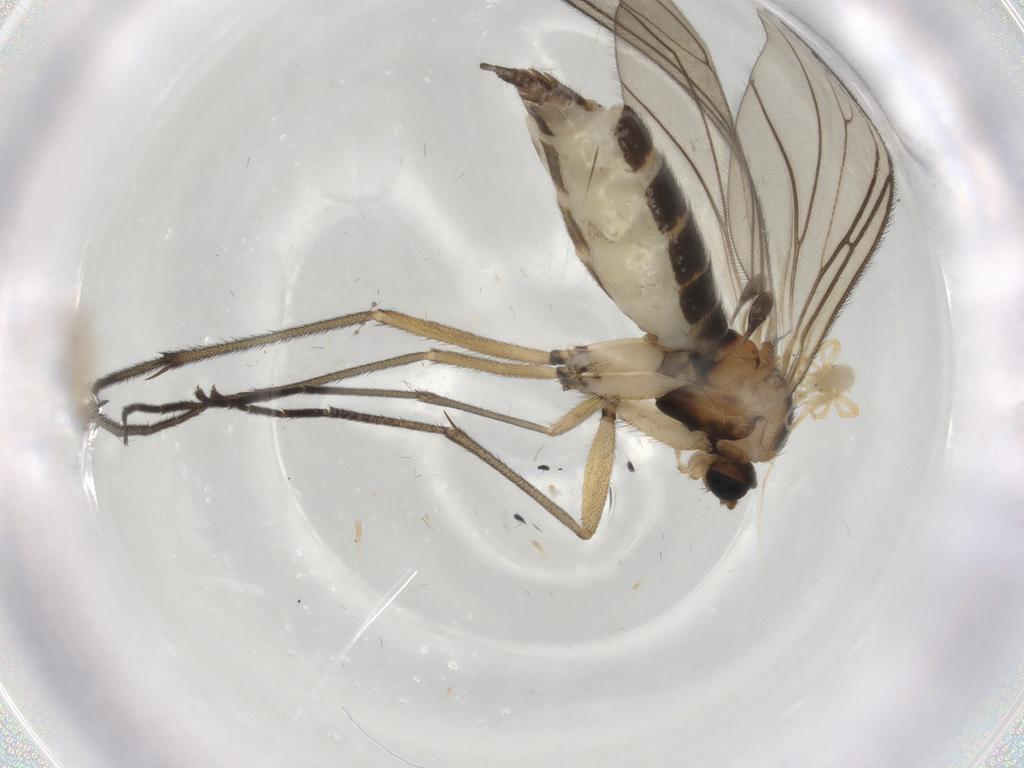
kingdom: Animalia
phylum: Arthropoda
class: Insecta
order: Diptera
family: Sciaridae
